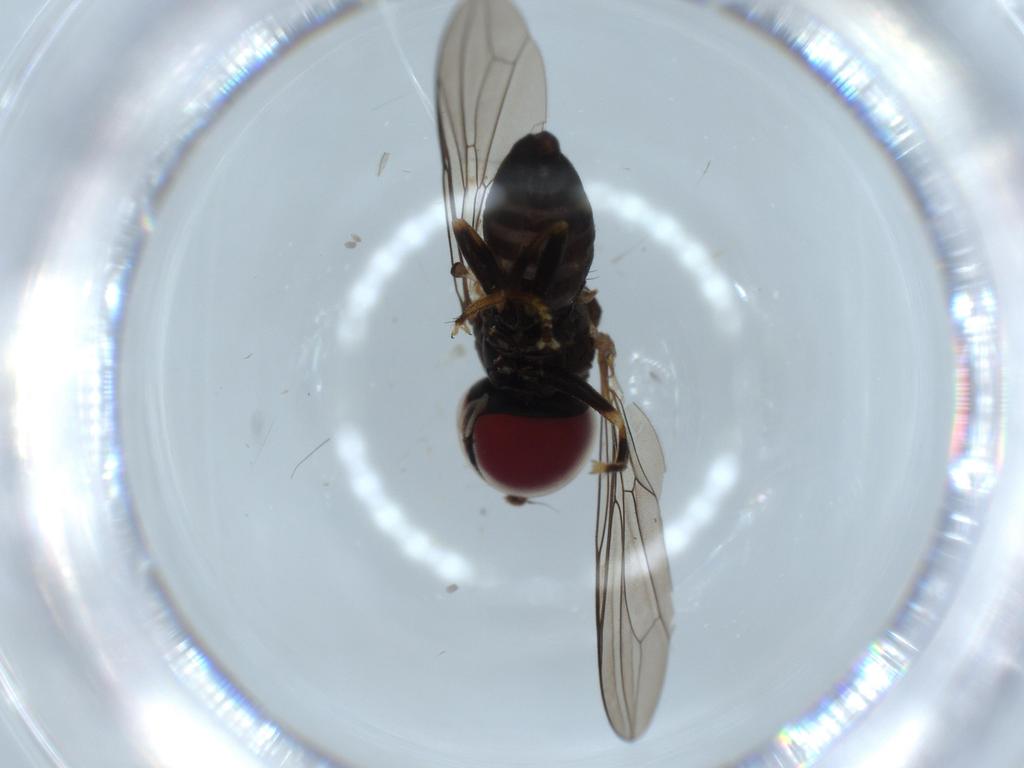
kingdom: Animalia
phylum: Arthropoda
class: Insecta
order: Diptera
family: Pipunculidae
